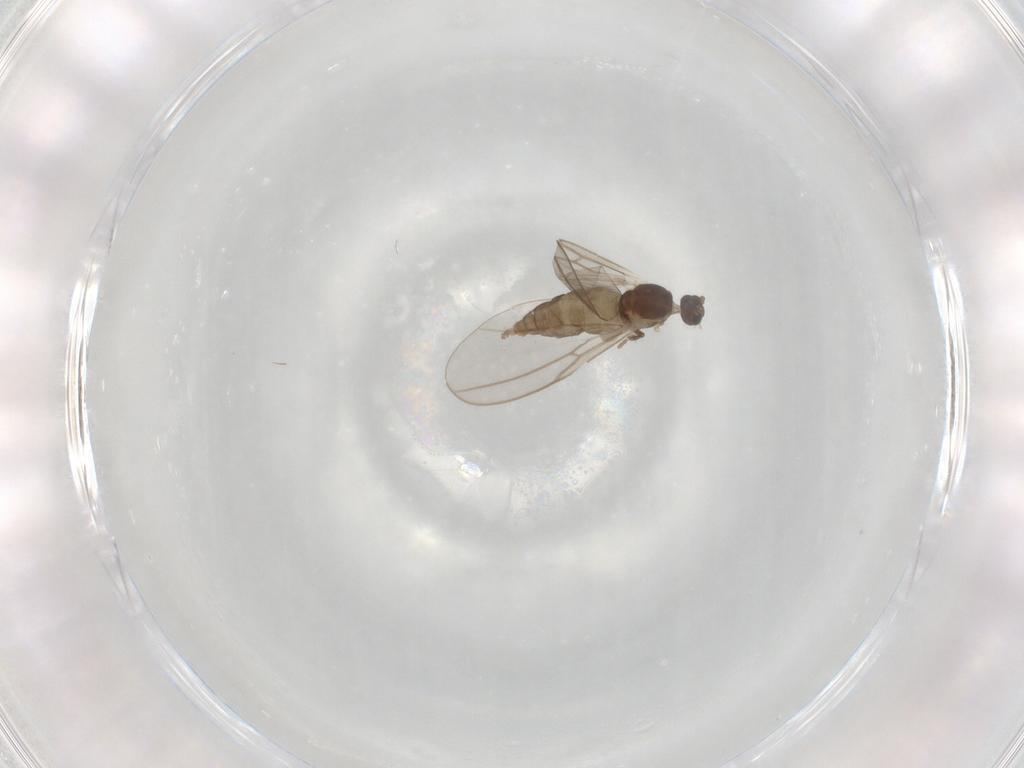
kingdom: Animalia
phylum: Arthropoda
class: Insecta
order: Diptera
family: Cecidomyiidae
